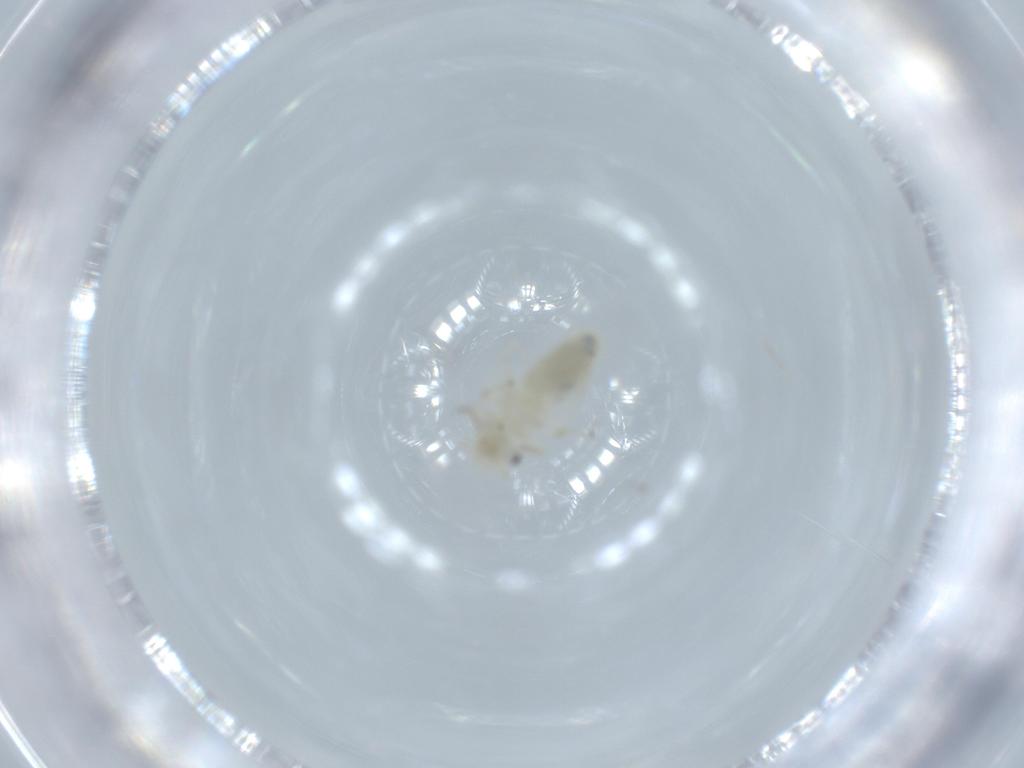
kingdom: Animalia
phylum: Arthropoda
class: Insecta
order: Psocodea
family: Caeciliusidae
